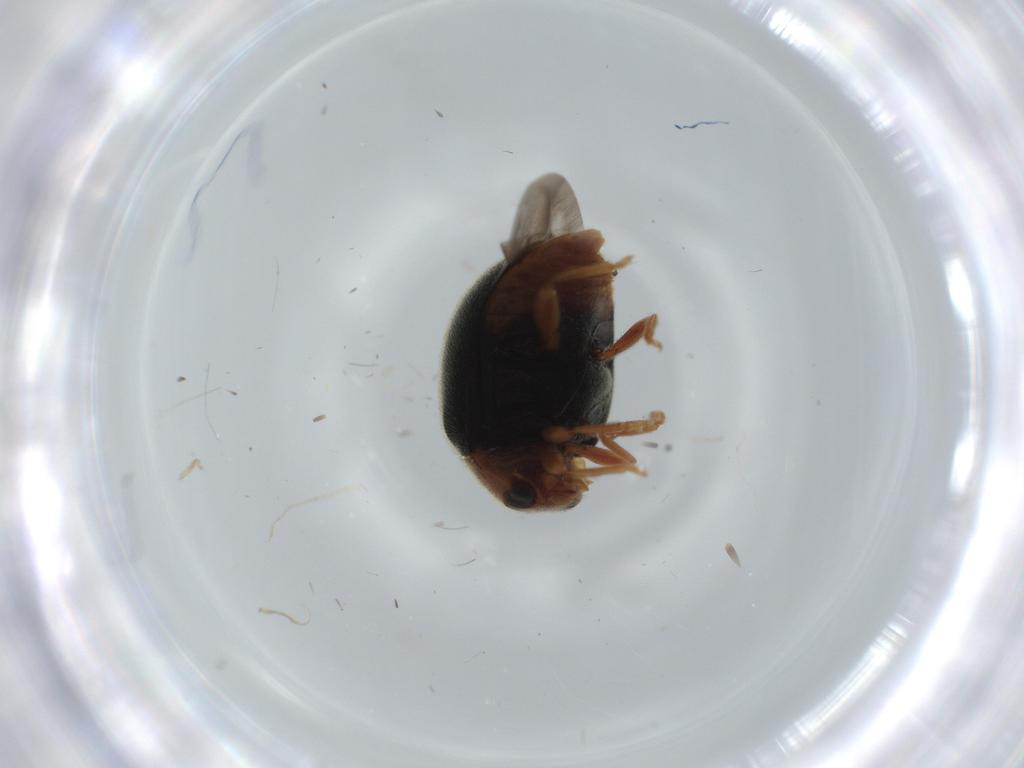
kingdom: Animalia
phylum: Arthropoda
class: Insecta
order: Coleoptera
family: Coccinellidae
